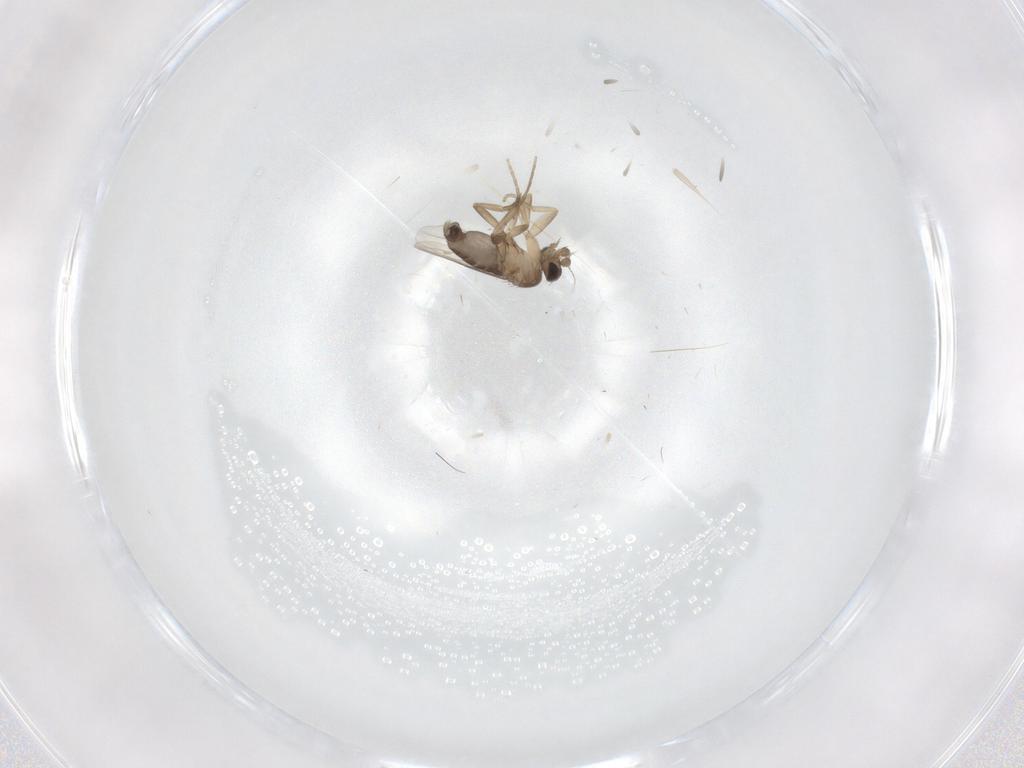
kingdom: Animalia
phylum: Arthropoda
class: Insecta
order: Diptera
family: Phoridae
